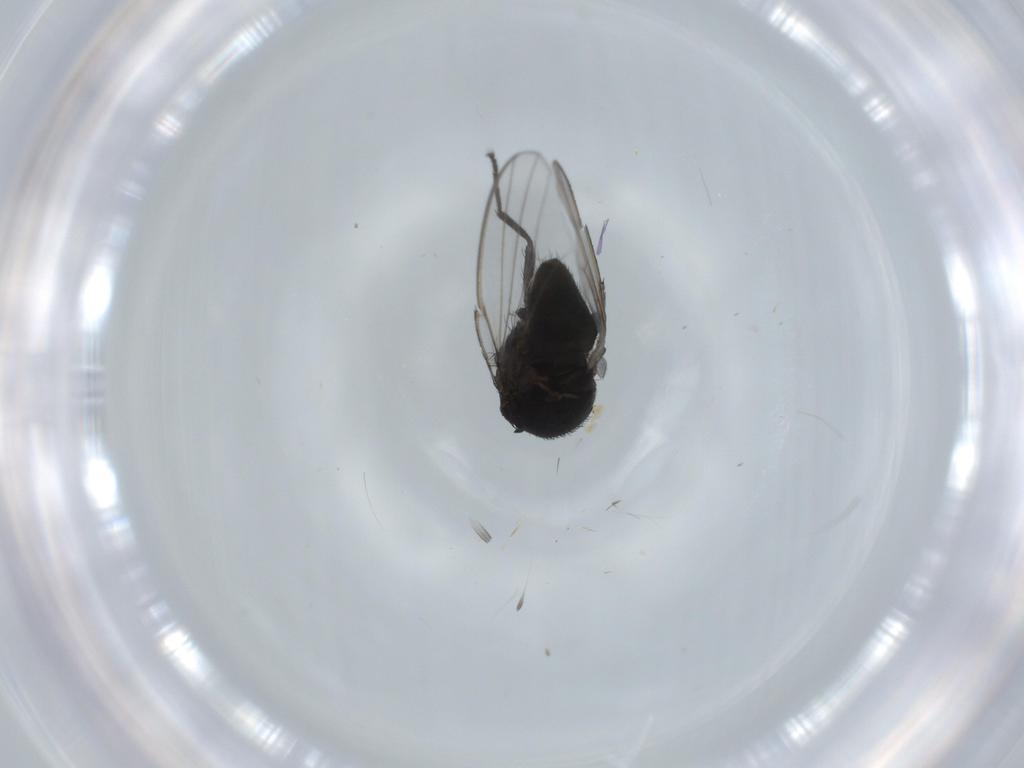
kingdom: Animalia
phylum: Arthropoda
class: Insecta
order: Diptera
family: Milichiidae
